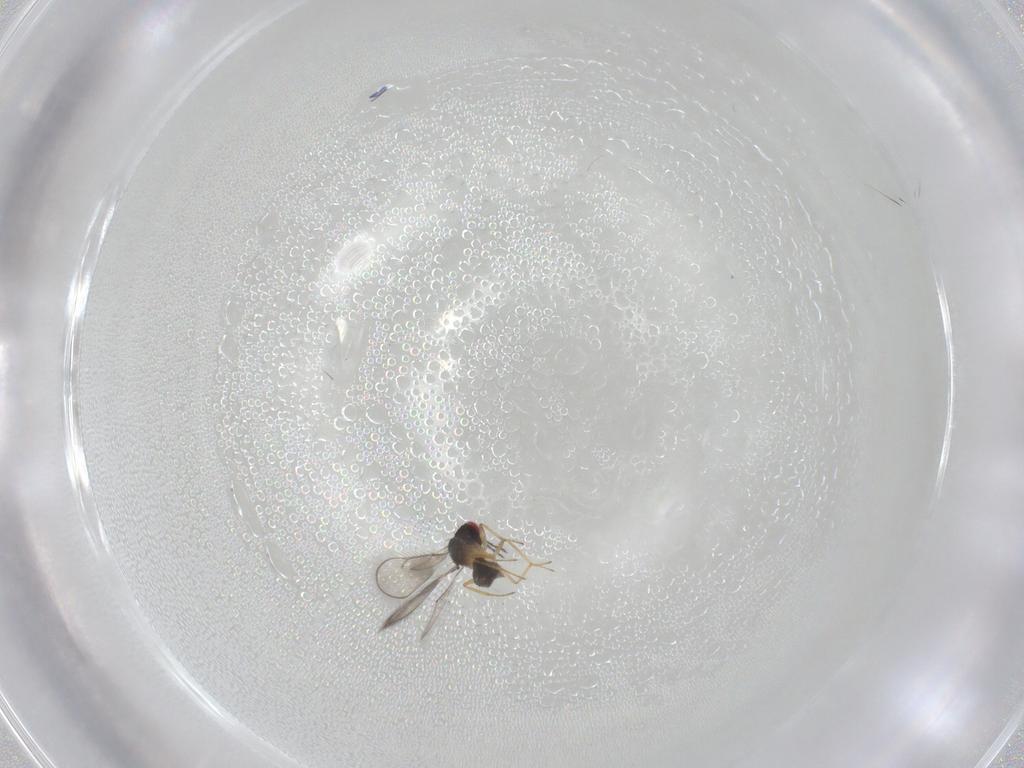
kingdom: Animalia
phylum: Arthropoda
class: Insecta
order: Hymenoptera
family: Eulophidae
